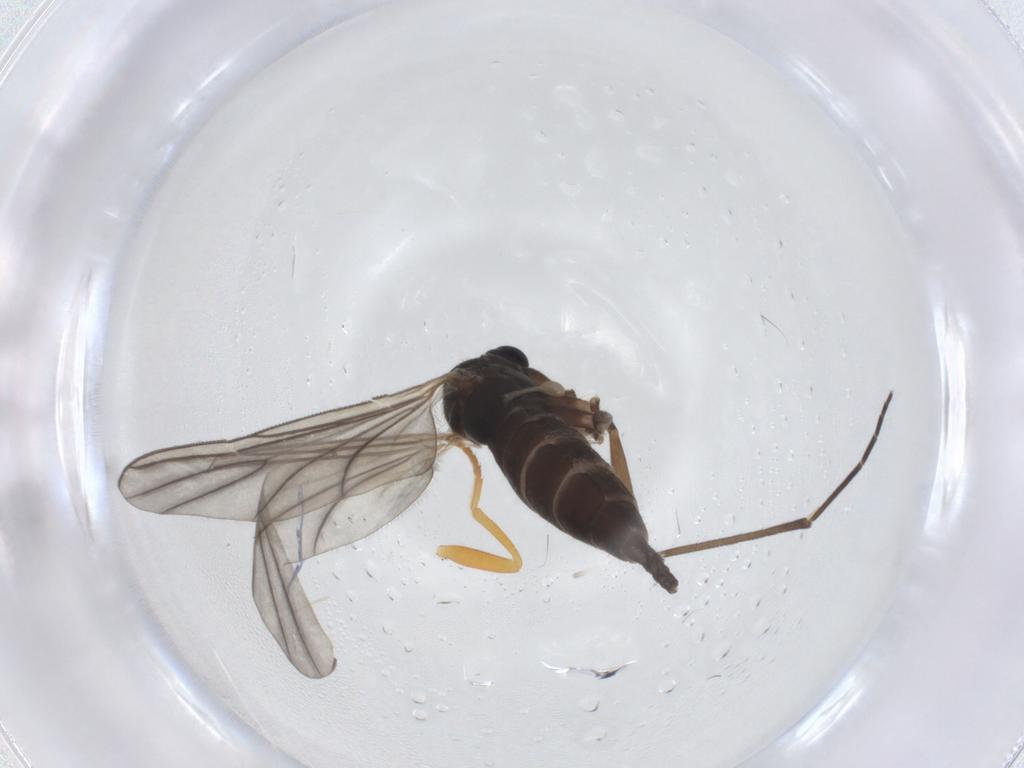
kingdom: Animalia
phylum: Arthropoda
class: Insecta
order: Diptera
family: Sciaridae
